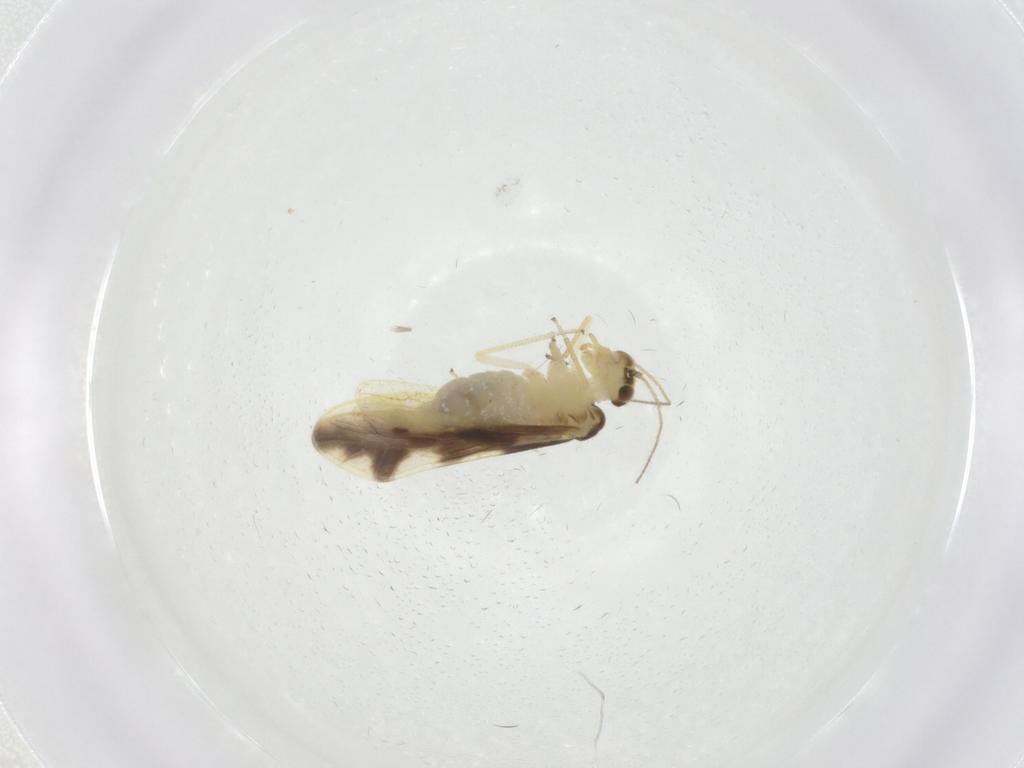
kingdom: Animalia
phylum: Arthropoda
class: Insecta
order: Psocodea
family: Caeciliusidae
